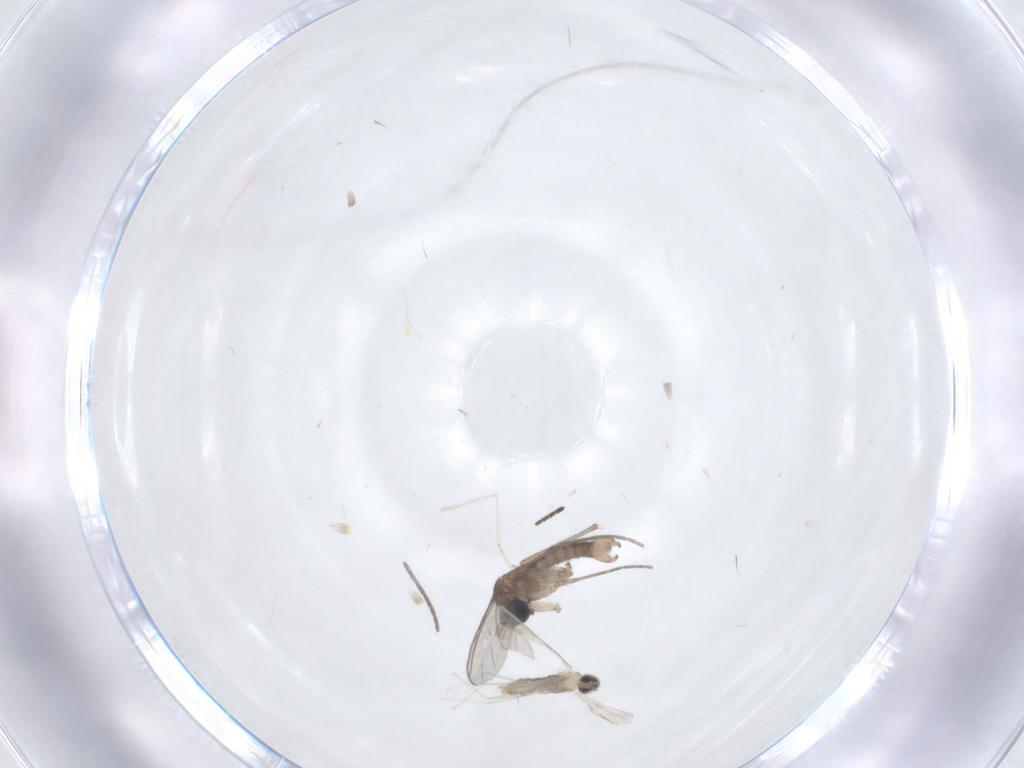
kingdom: Animalia
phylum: Arthropoda
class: Insecta
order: Diptera
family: Sciaridae
